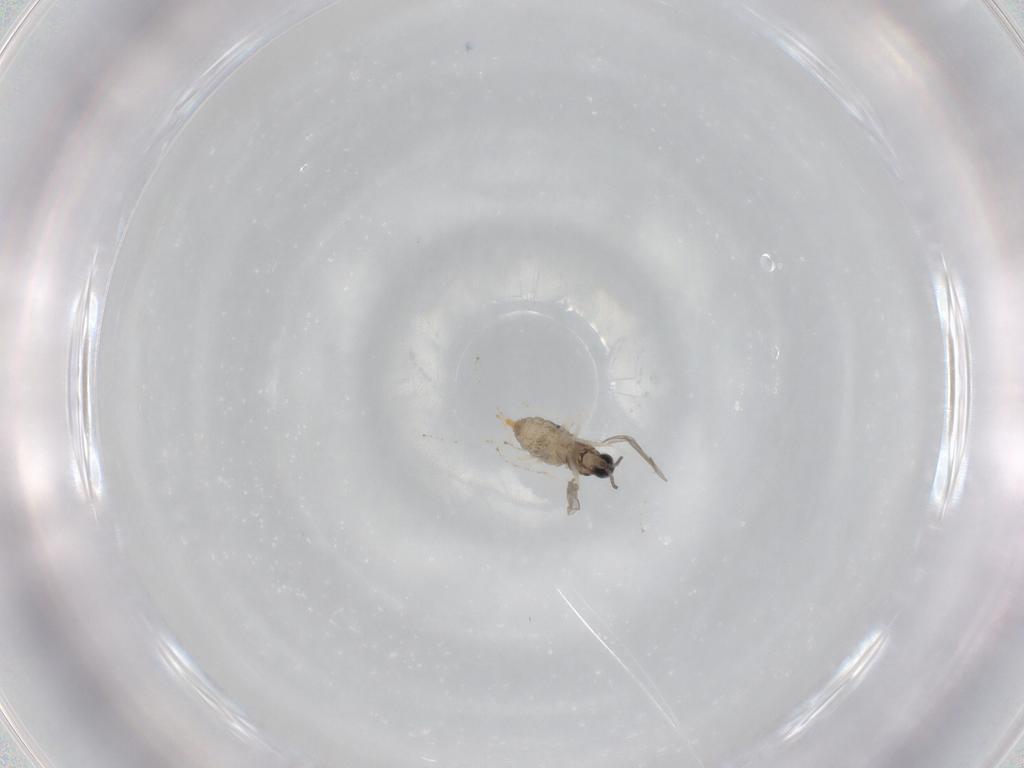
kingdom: Animalia
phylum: Arthropoda
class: Insecta
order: Diptera
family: Cecidomyiidae
